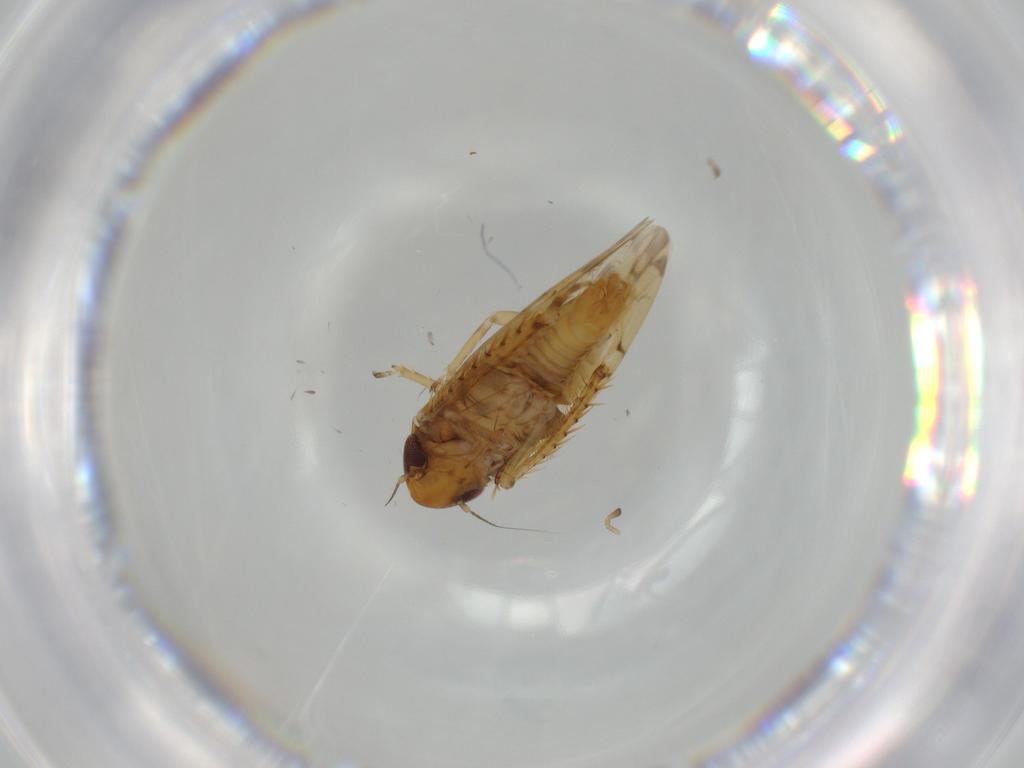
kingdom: Animalia
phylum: Arthropoda
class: Insecta
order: Hemiptera
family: Cicadellidae
